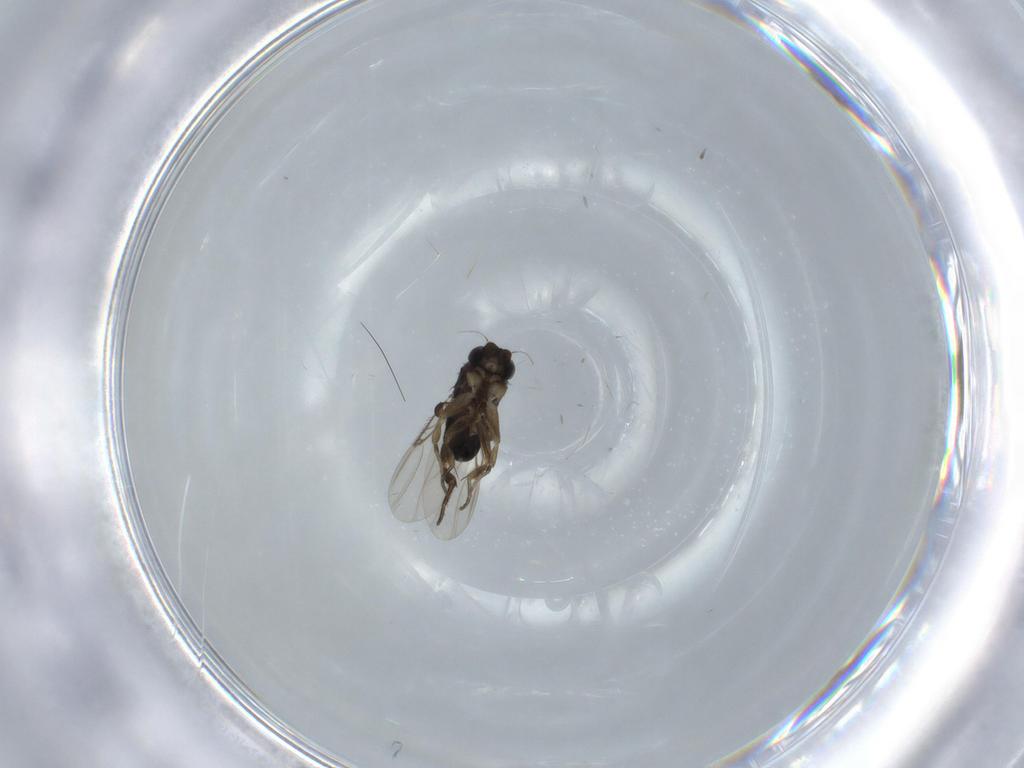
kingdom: Animalia
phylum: Arthropoda
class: Insecta
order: Diptera
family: Phoridae
